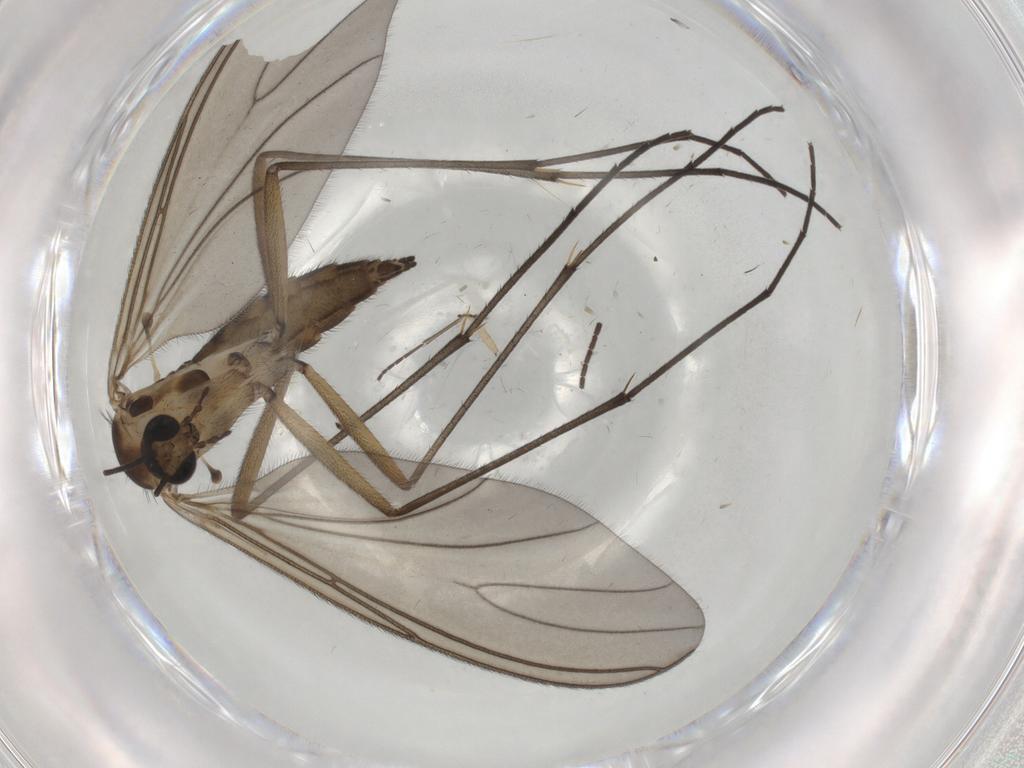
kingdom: Animalia
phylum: Arthropoda
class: Insecta
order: Diptera
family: Sciaridae
